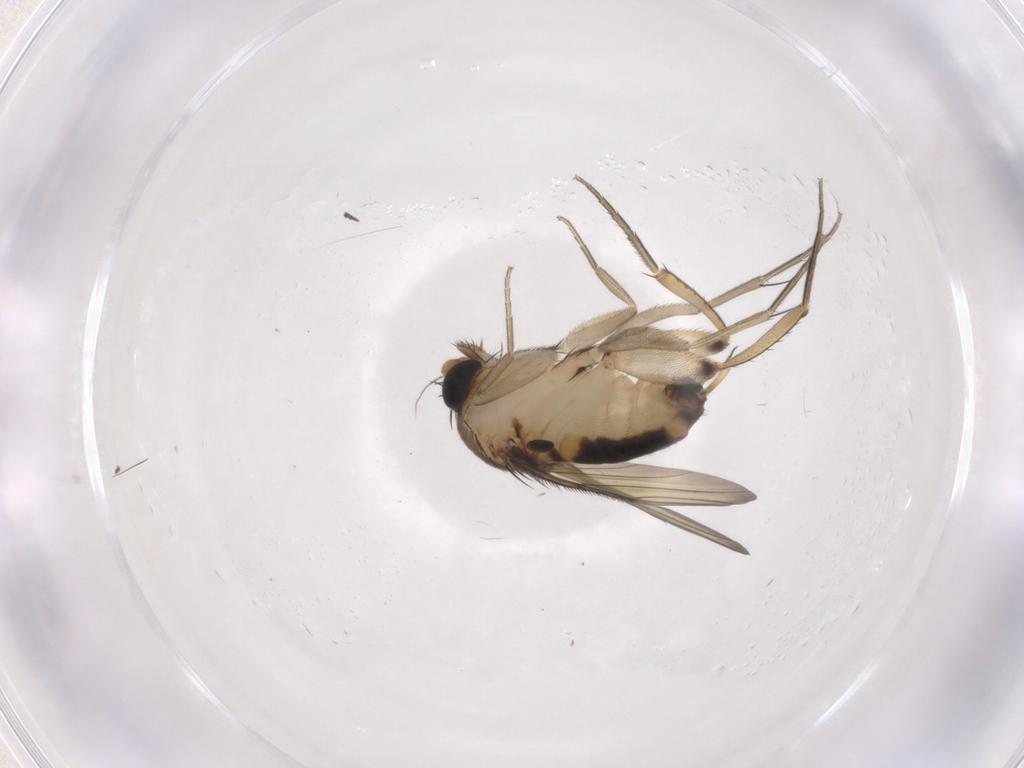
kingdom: Animalia
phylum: Arthropoda
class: Insecta
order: Diptera
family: Phoridae
